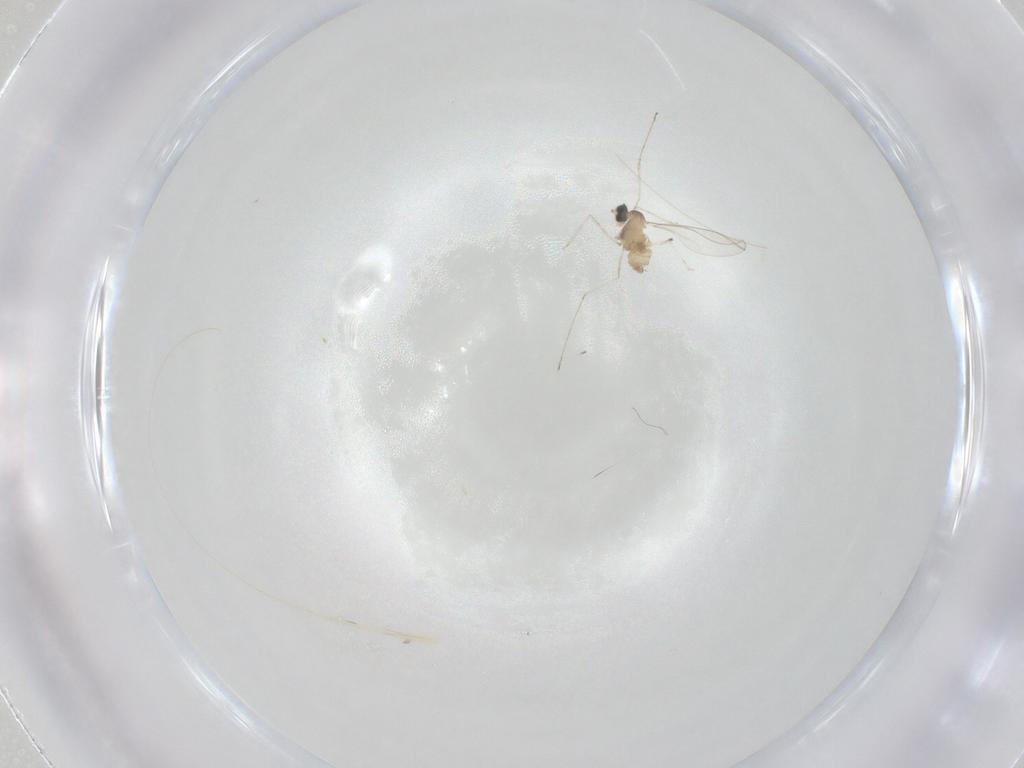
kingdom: Animalia
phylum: Arthropoda
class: Insecta
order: Diptera
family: Cecidomyiidae
